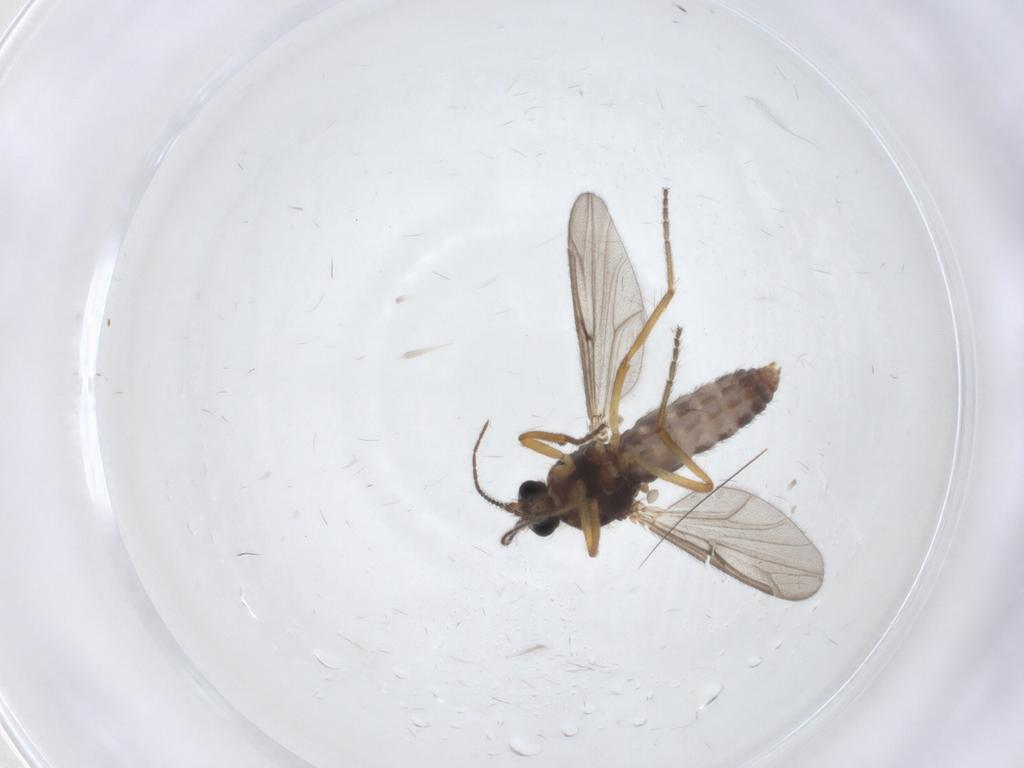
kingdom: Animalia
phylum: Arthropoda
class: Insecta
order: Diptera
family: Ceratopogonidae
